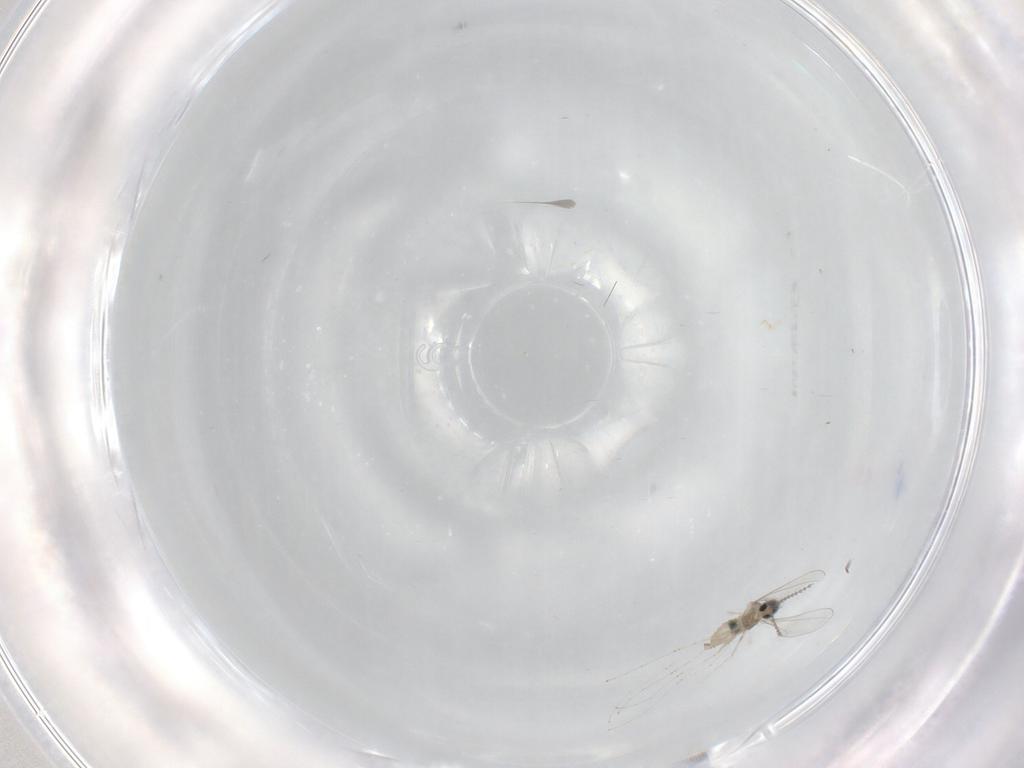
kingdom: Animalia
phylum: Arthropoda
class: Insecta
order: Diptera
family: Cecidomyiidae
